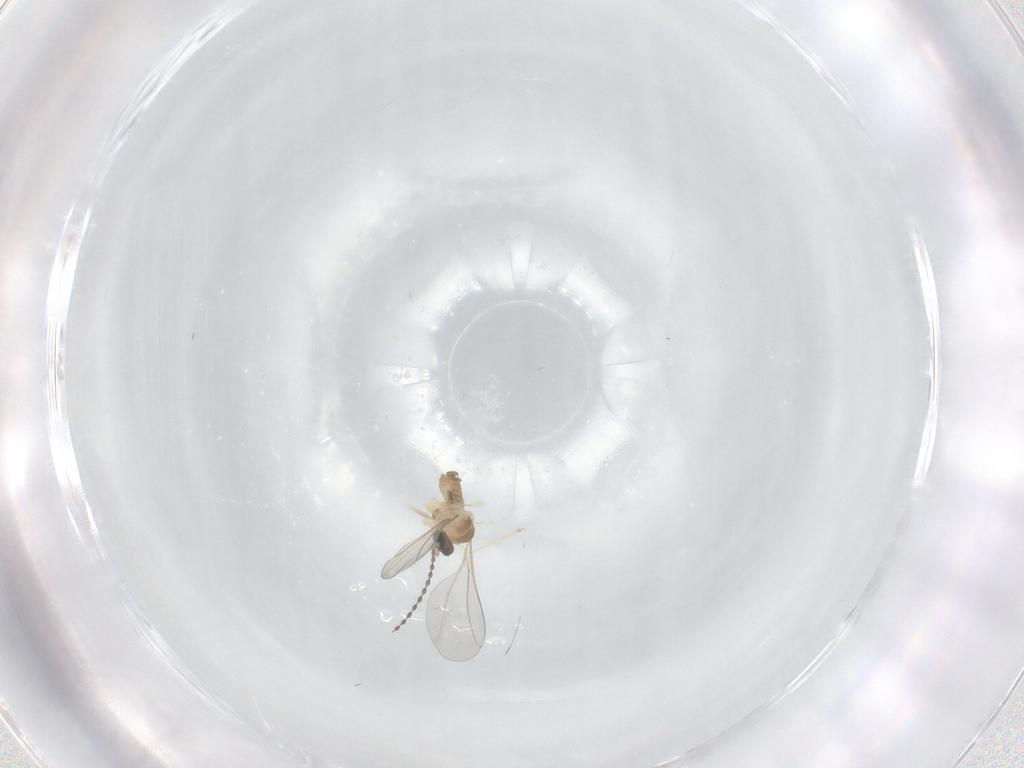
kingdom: Animalia
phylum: Arthropoda
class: Insecta
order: Diptera
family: Cecidomyiidae
